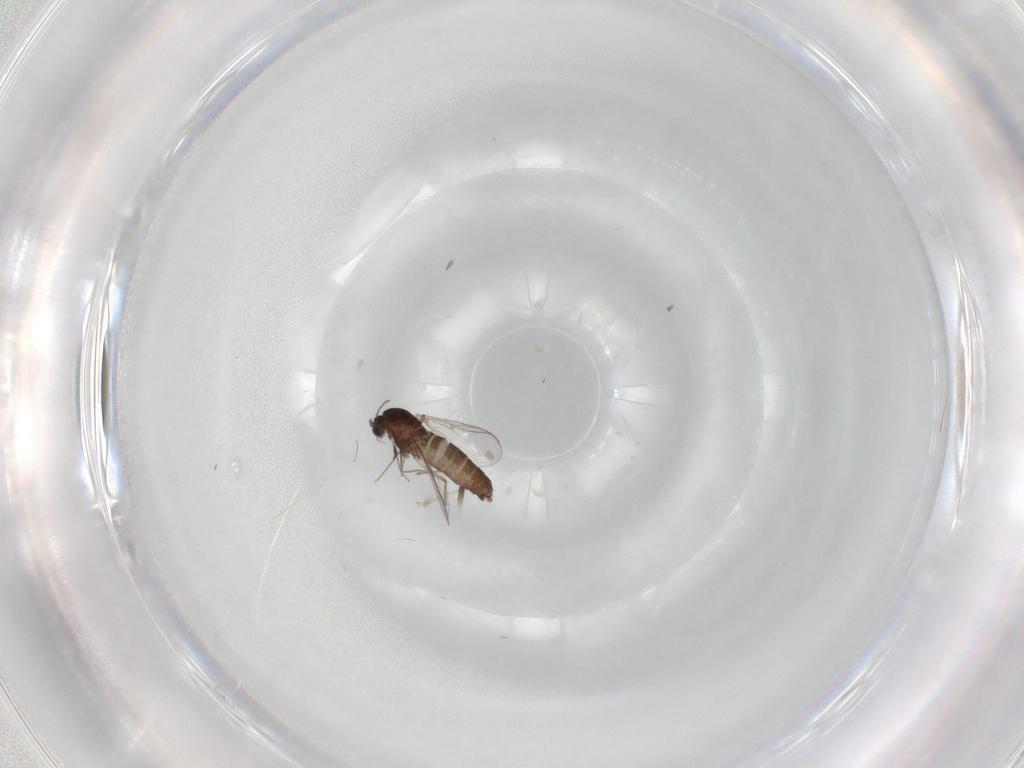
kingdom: Animalia
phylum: Arthropoda
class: Insecta
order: Diptera
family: Chironomidae
